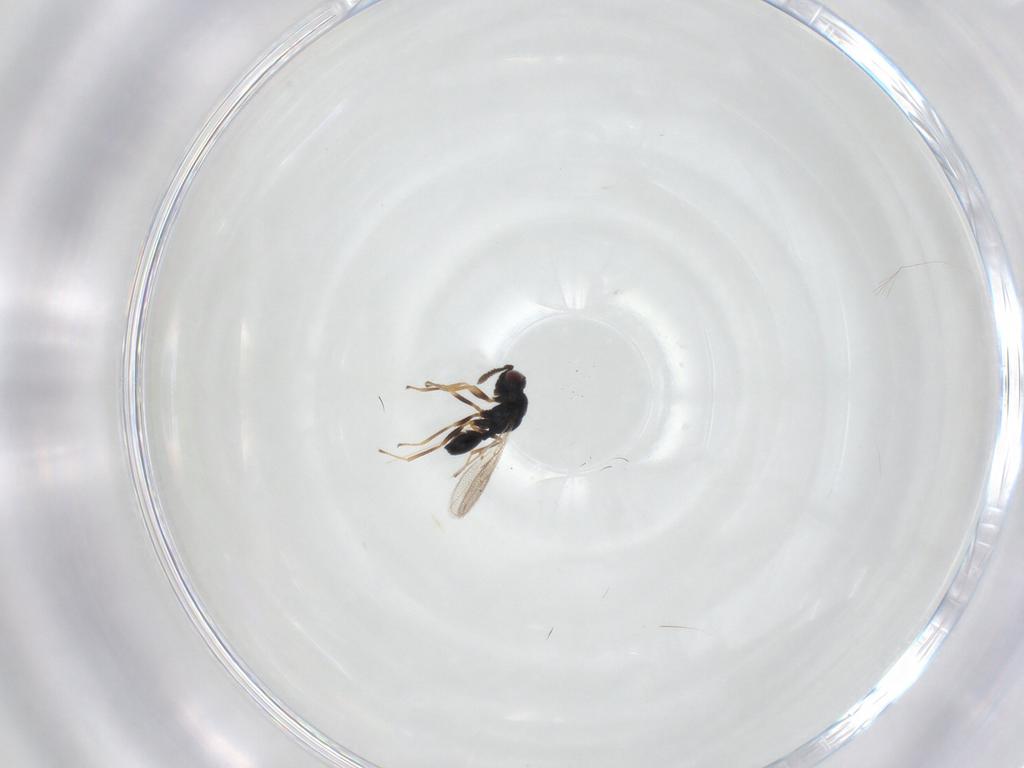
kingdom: Animalia
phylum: Arthropoda
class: Insecta
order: Hymenoptera
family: Chalcidoidea_incertae_sedis
